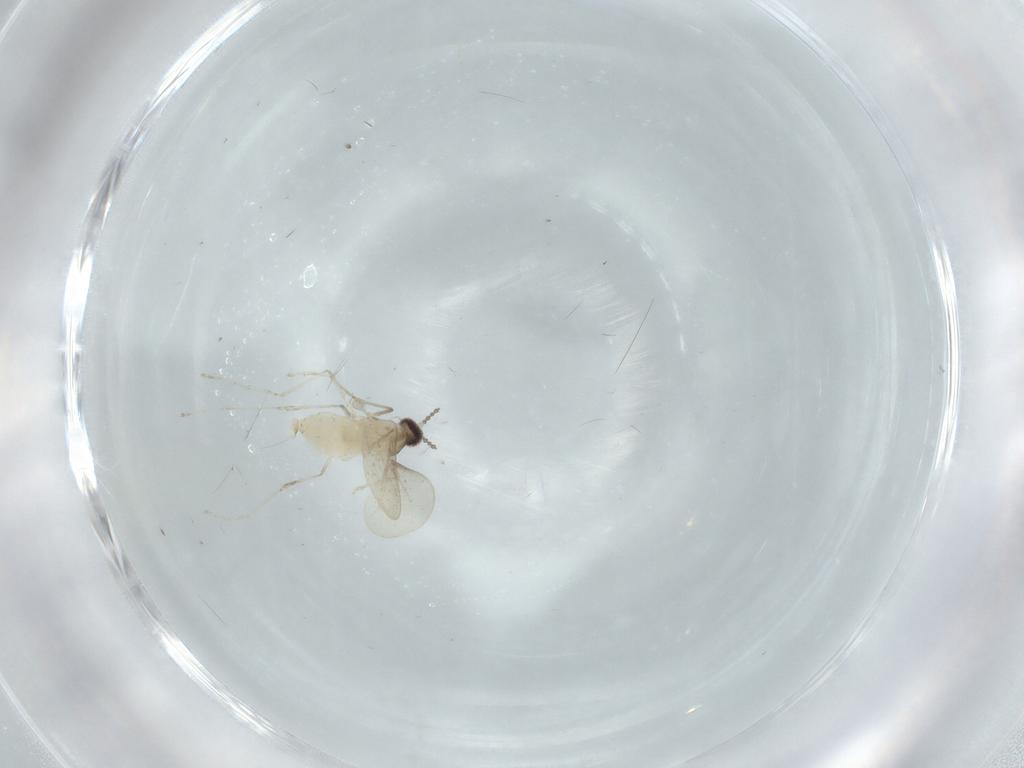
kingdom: Animalia
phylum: Arthropoda
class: Insecta
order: Diptera
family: Cecidomyiidae
